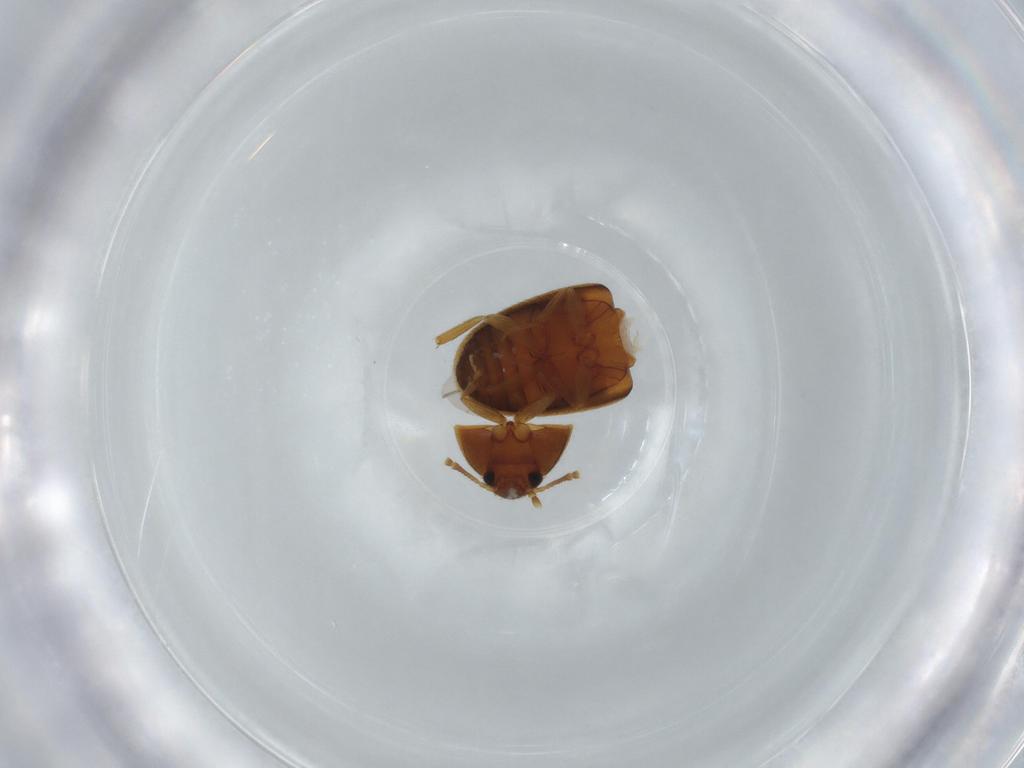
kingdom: Animalia
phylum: Arthropoda
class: Insecta
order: Coleoptera
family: Mycetophagidae
